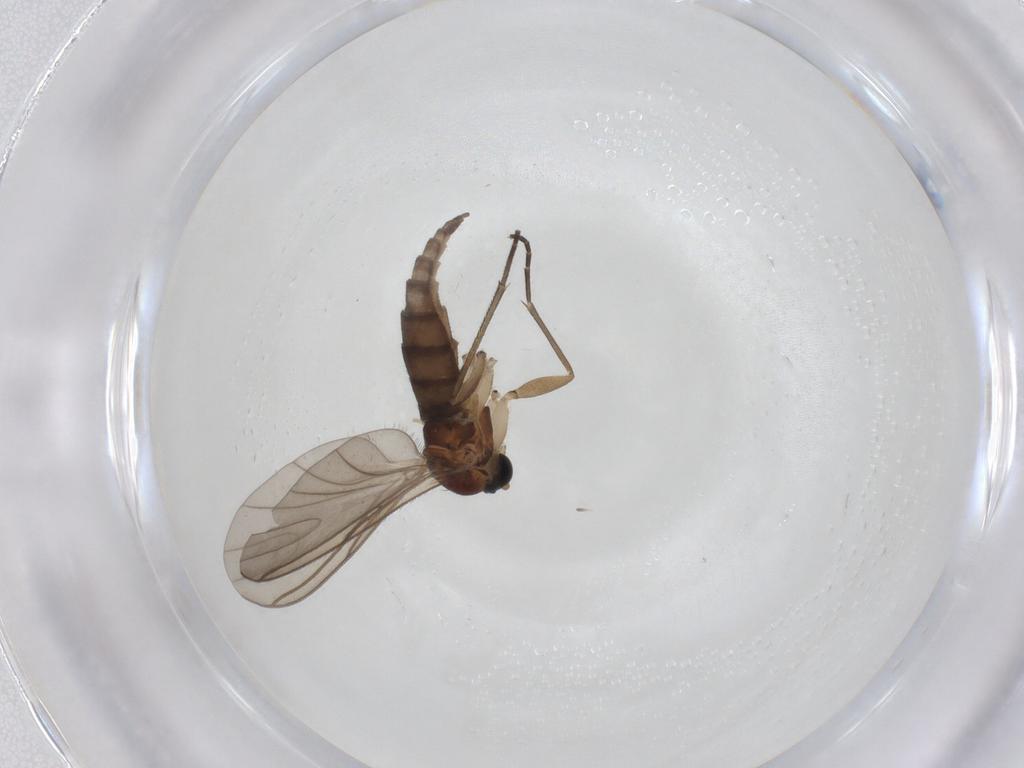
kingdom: Animalia
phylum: Arthropoda
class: Insecta
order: Diptera
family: Sciaridae
